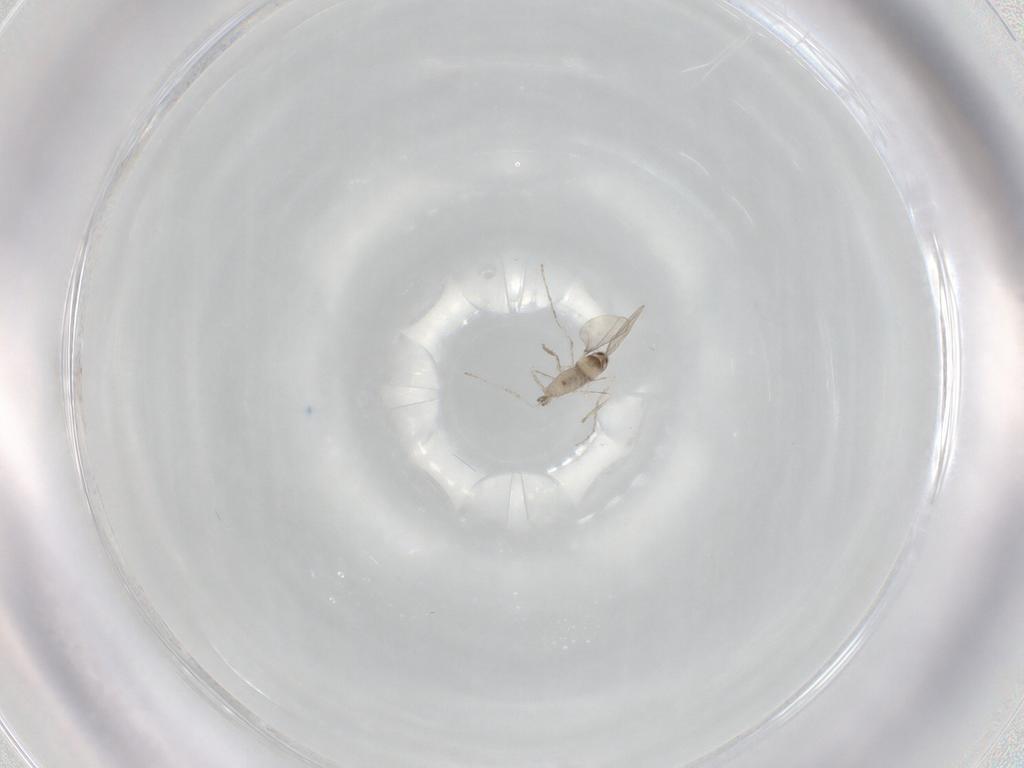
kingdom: Animalia
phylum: Arthropoda
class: Insecta
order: Diptera
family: Cecidomyiidae
